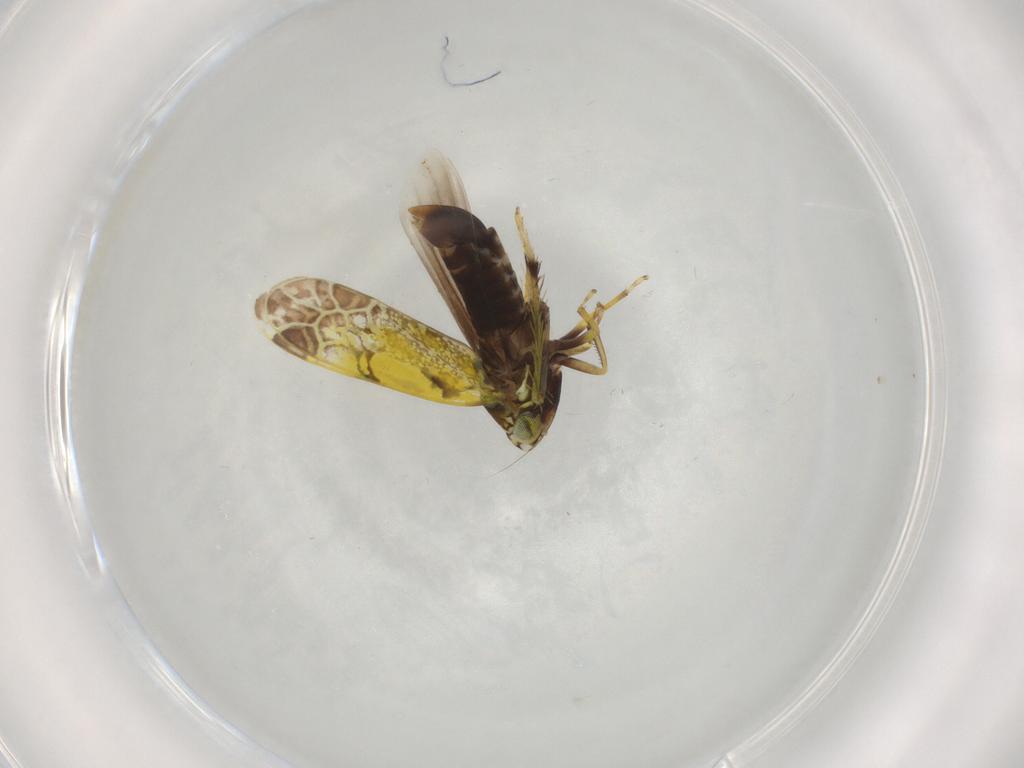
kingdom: Animalia
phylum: Arthropoda
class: Insecta
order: Hemiptera
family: Cicadellidae
